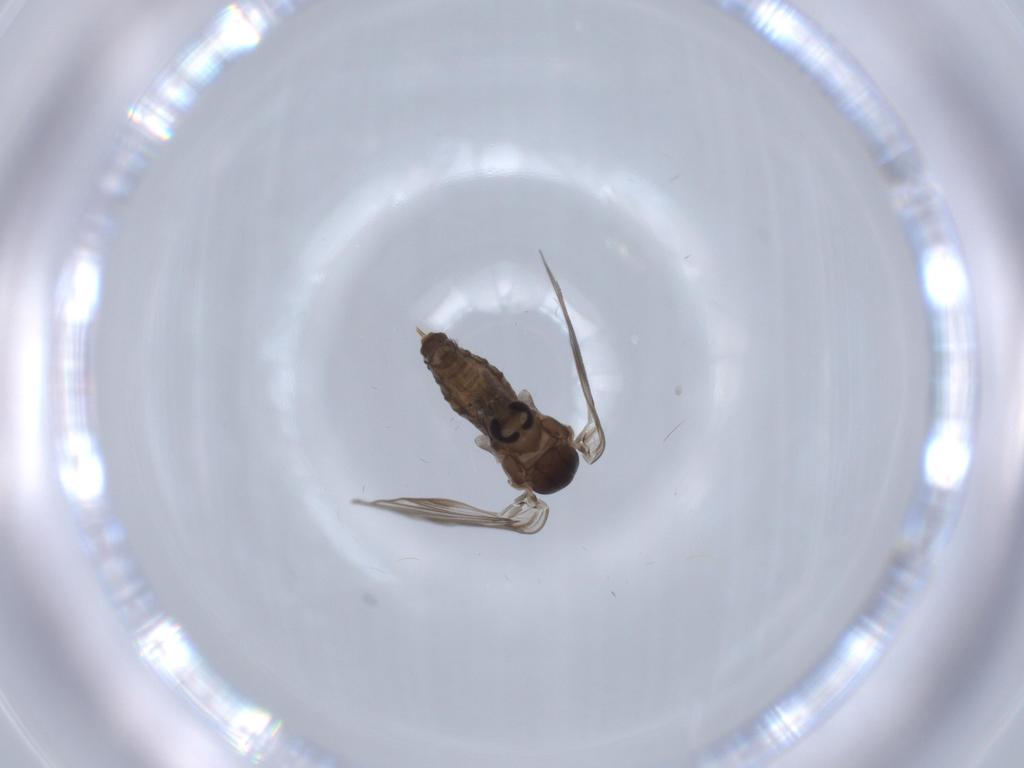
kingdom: Animalia
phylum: Arthropoda
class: Insecta
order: Diptera
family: Psychodidae
